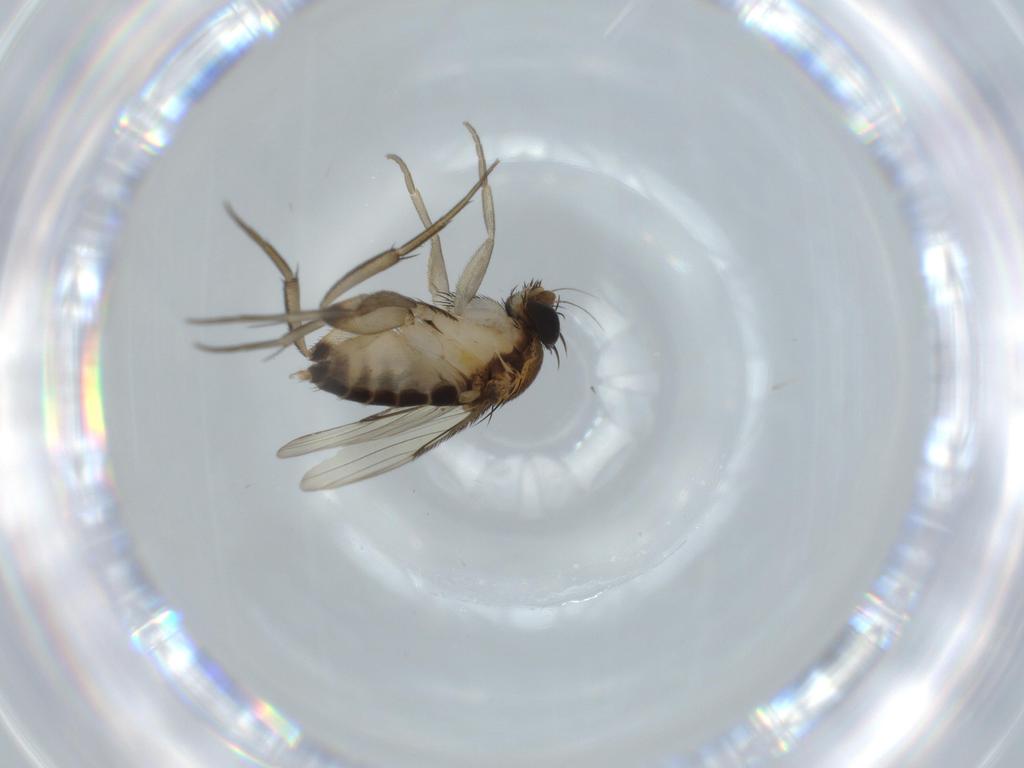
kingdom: Animalia
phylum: Arthropoda
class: Insecta
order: Diptera
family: Phoridae
